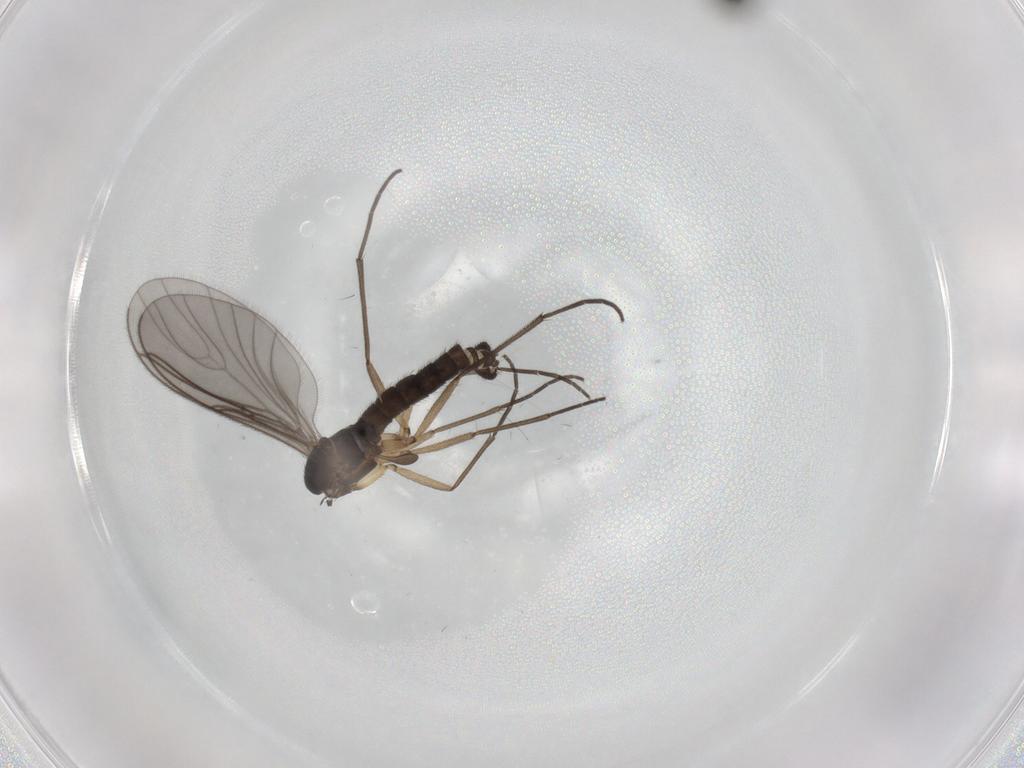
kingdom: Animalia
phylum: Arthropoda
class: Insecta
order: Diptera
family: Sciaridae
